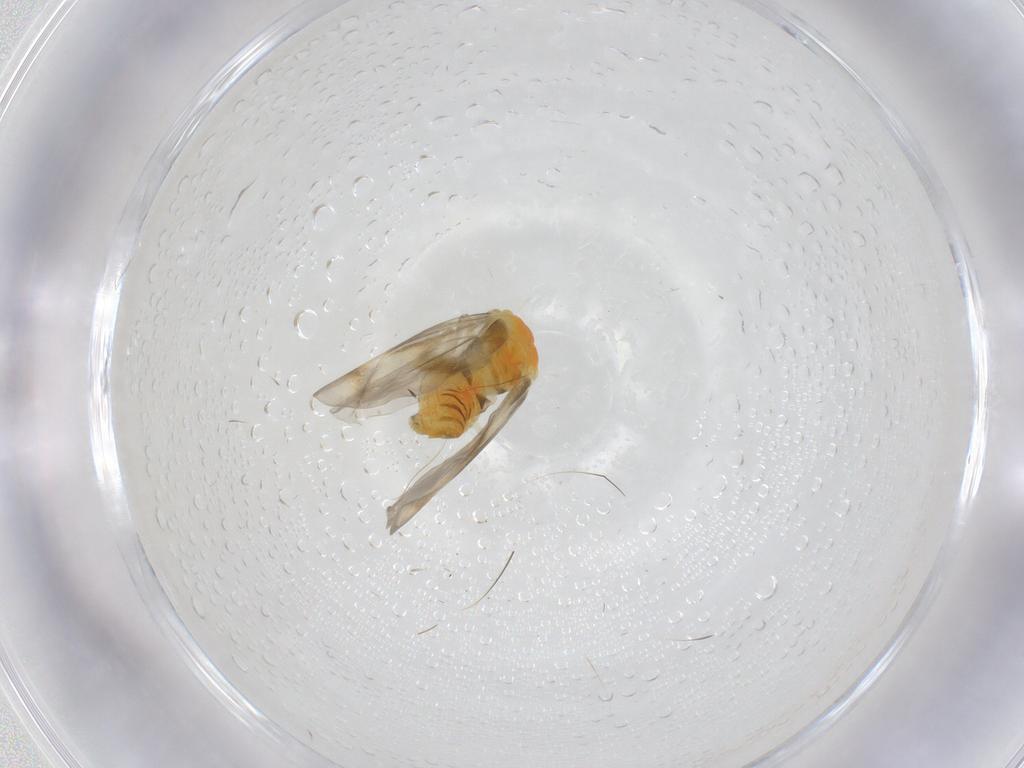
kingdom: Animalia
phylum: Arthropoda
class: Insecta
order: Hemiptera
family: Aleyrodidae
